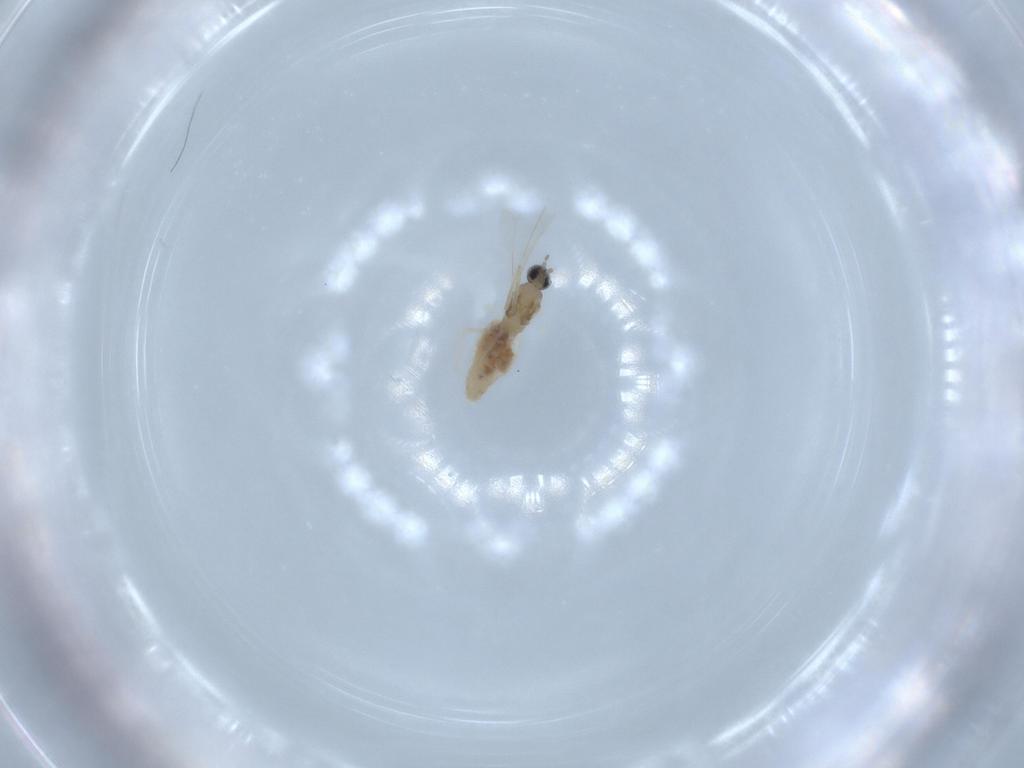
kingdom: Animalia
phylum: Arthropoda
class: Insecta
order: Diptera
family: Cecidomyiidae
